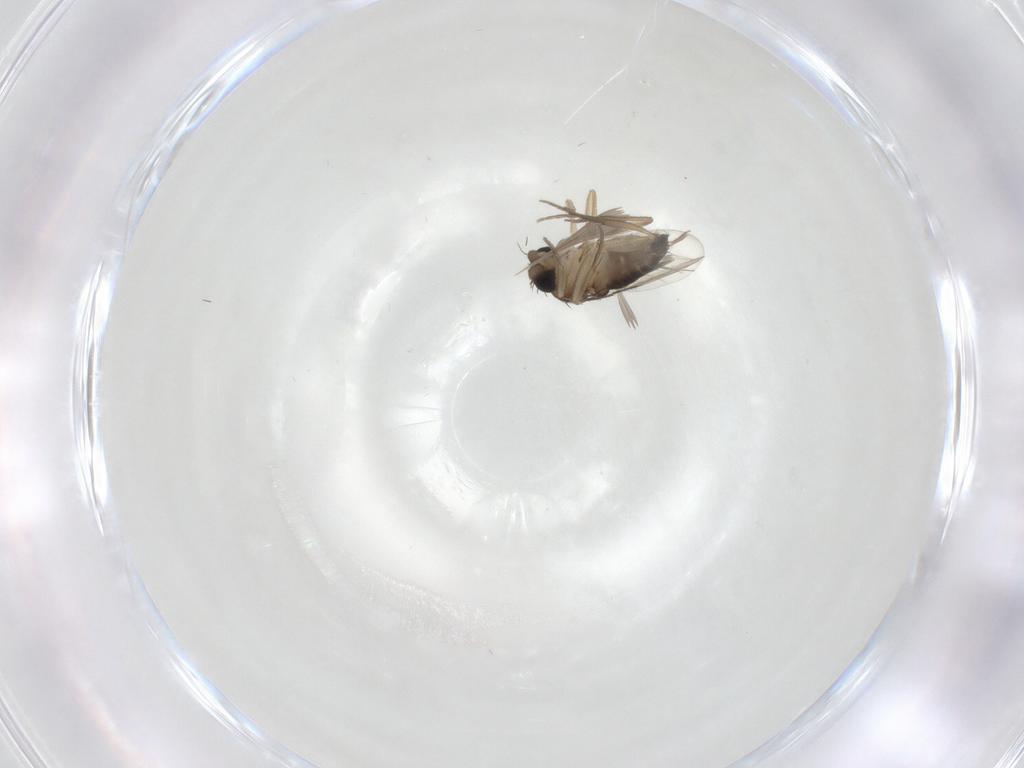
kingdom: Animalia
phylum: Arthropoda
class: Insecta
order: Diptera
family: Chironomidae
